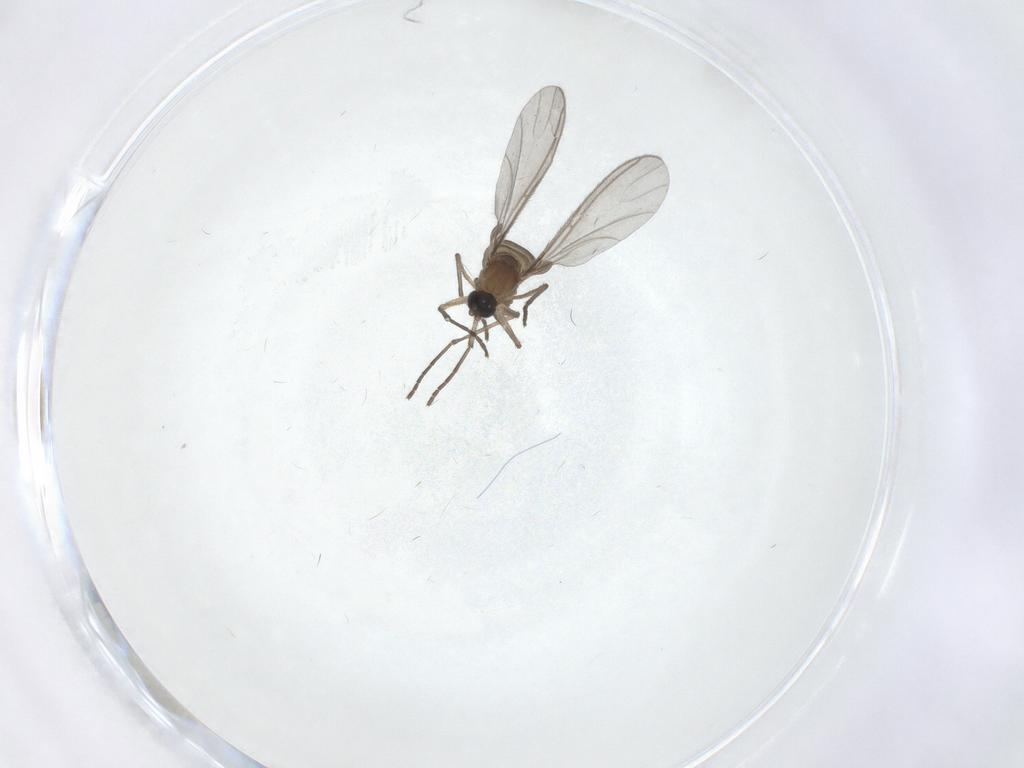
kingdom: Animalia
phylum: Arthropoda
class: Insecta
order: Diptera
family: Sciaridae
